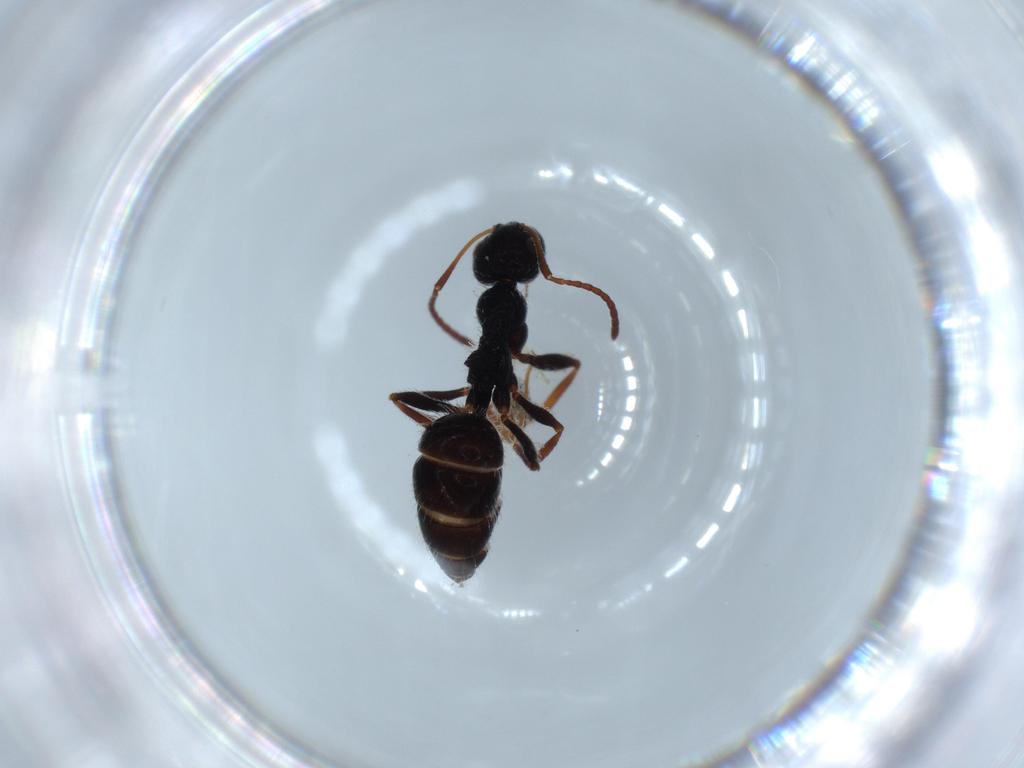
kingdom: Animalia
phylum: Arthropoda
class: Insecta
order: Hymenoptera
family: Formicidae
